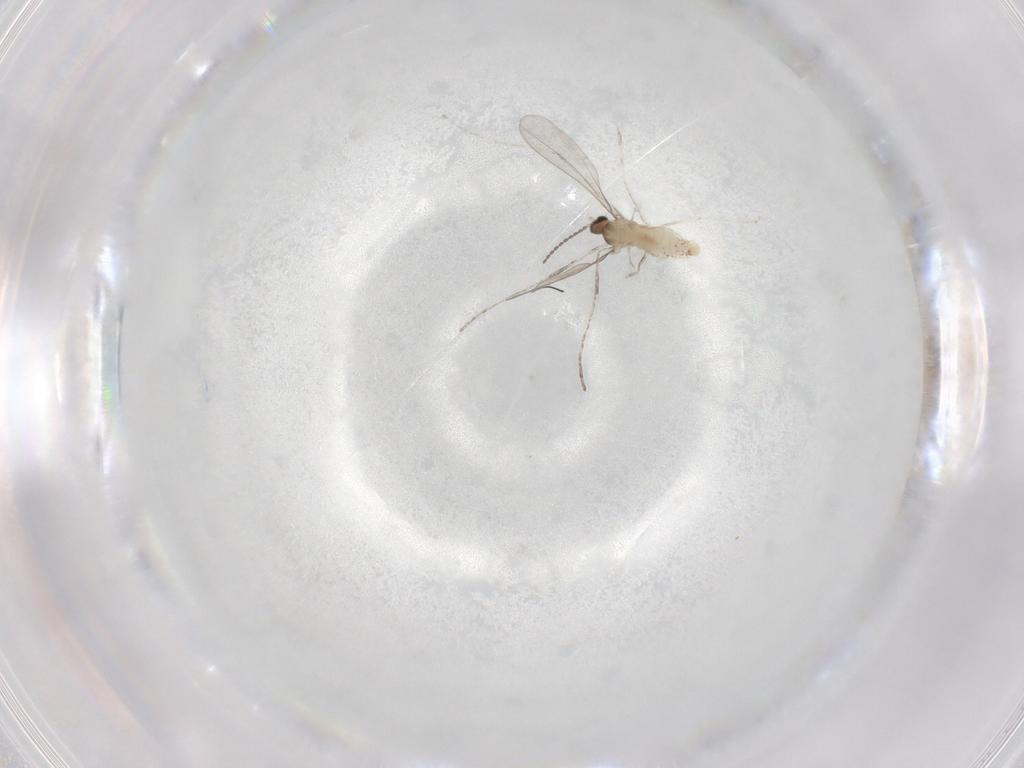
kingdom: Animalia
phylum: Arthropoda
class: Insecta
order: Diptera
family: Cecidomyiidae
